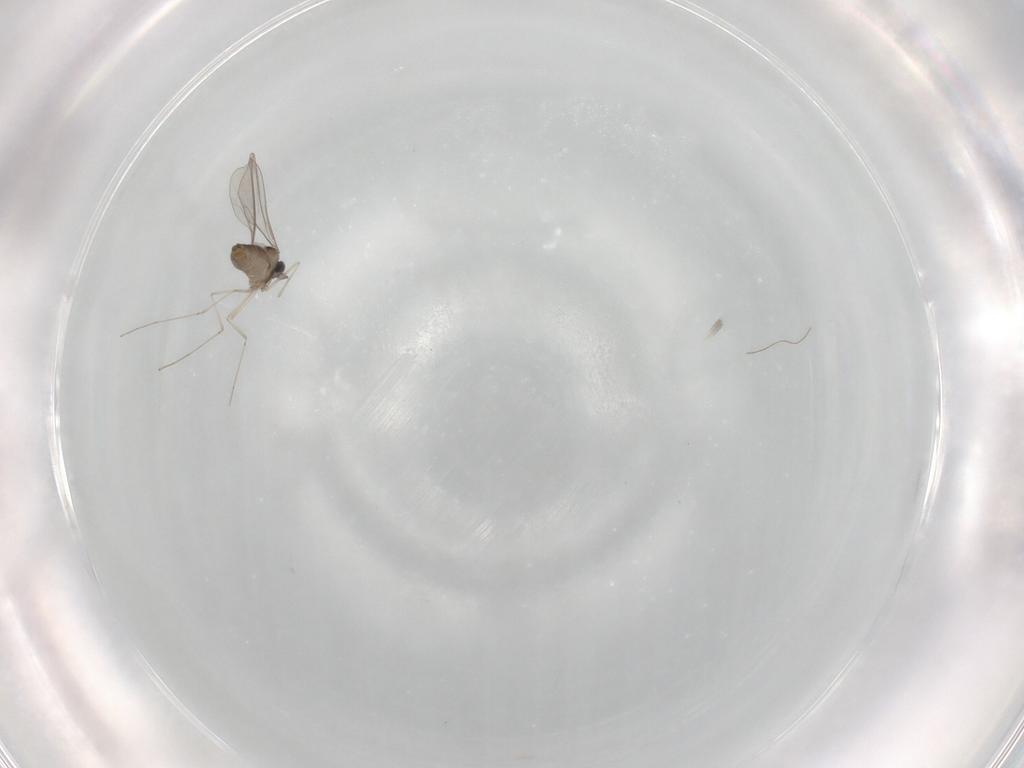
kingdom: Animalia
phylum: Arthropoda
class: Insecta
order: Diptera
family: Cecidomyiidae
